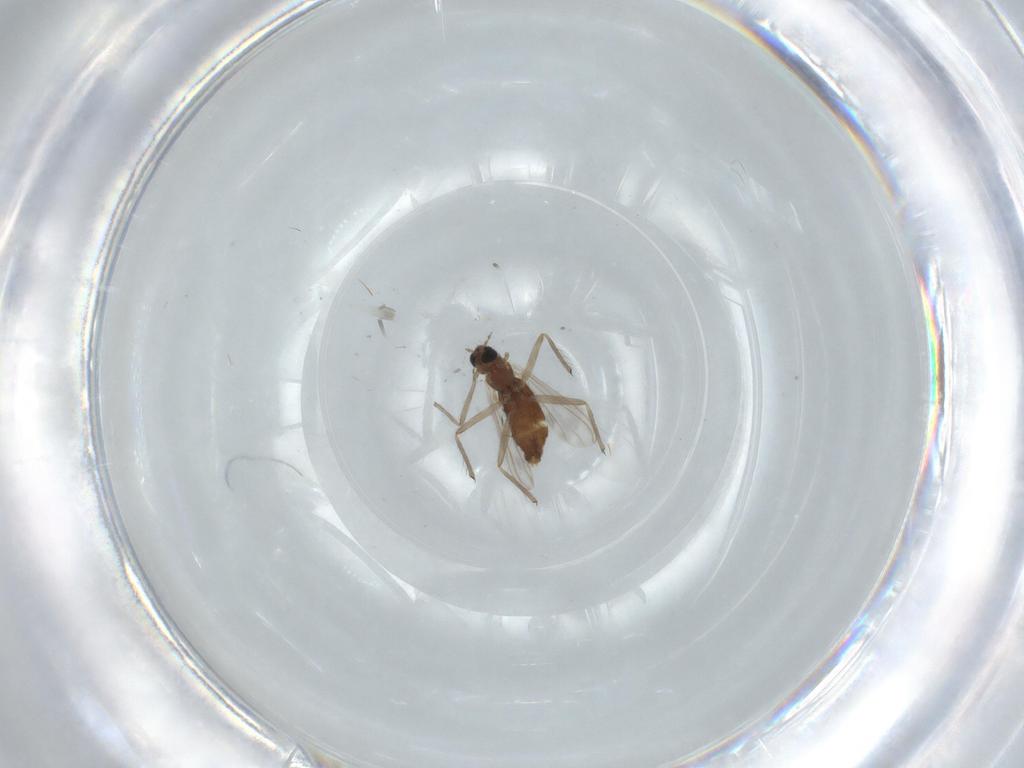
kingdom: Animalia
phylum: Arthropoda
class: Insecta
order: Diptera
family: Chironomidae
